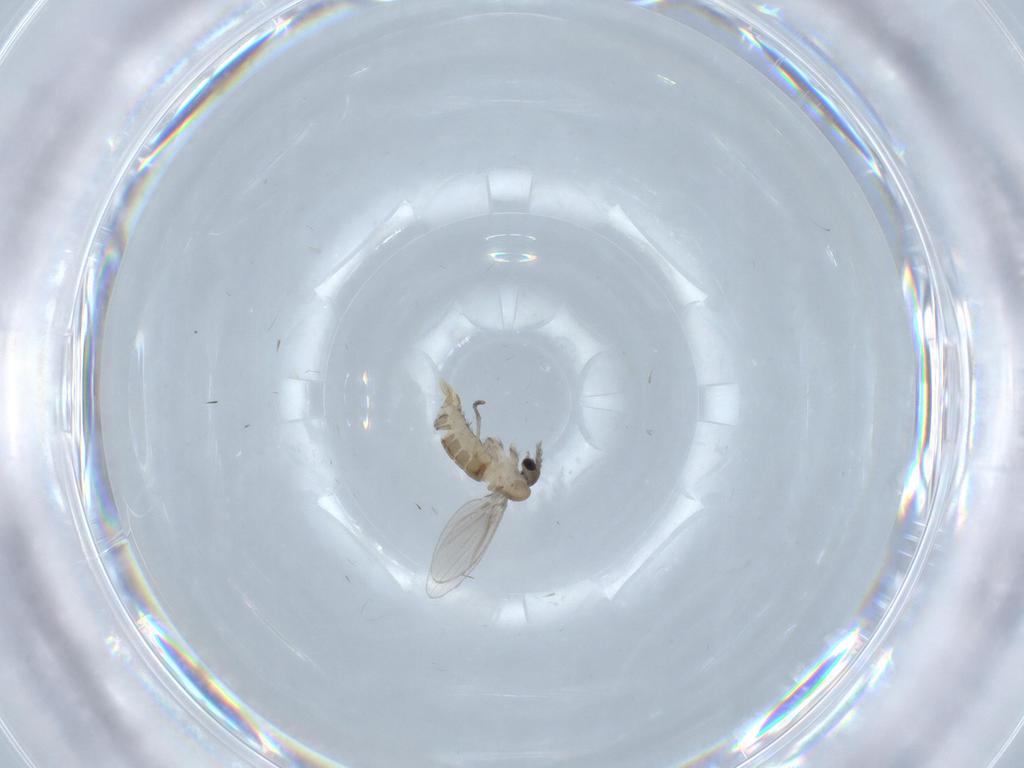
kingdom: Animalia
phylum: Arthropoda
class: Insecta
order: Diptera
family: Psychodidae
